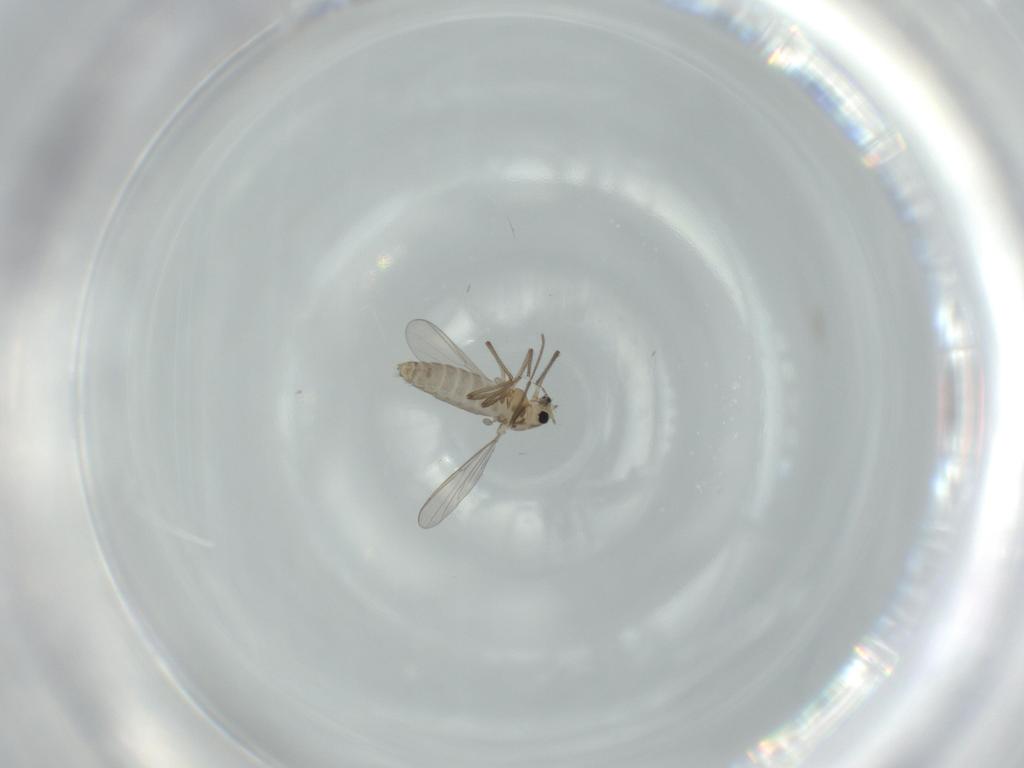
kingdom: Animalia
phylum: Arthropoda
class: Insecta
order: Diptera
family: Chironomidae
